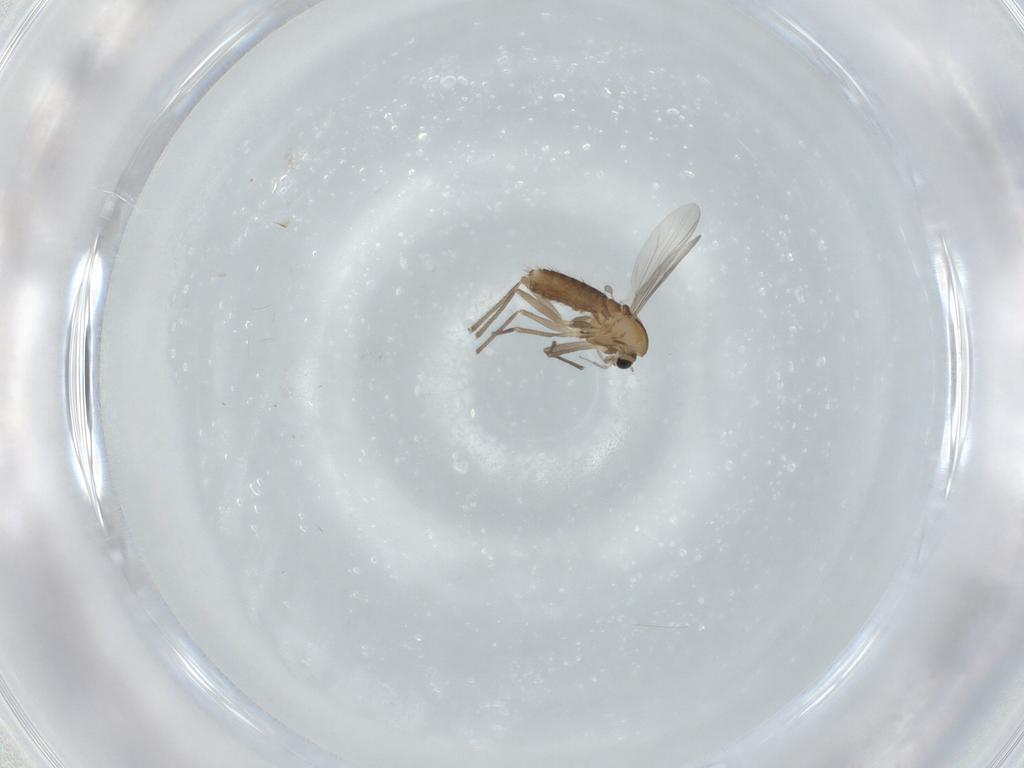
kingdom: Animalia
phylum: Arthropoda
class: Insecta
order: Diptera
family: Chironomidae
